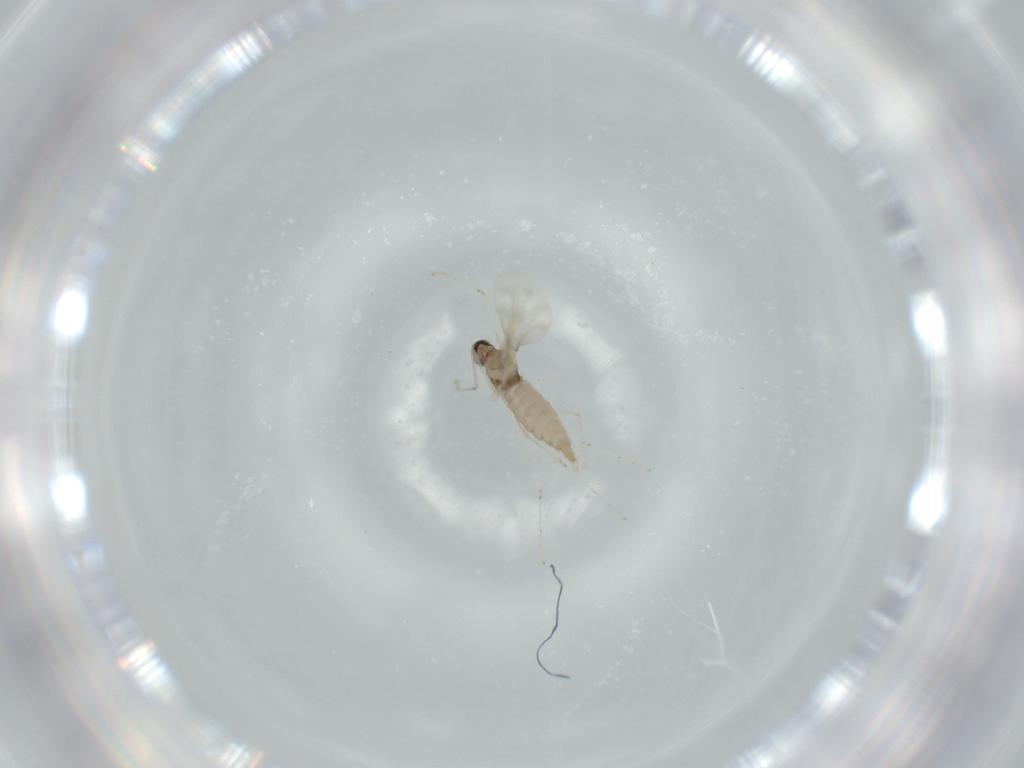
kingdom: Animalia
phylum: Arthropoda
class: Insecta
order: Diptera
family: Cecidomyiidae
